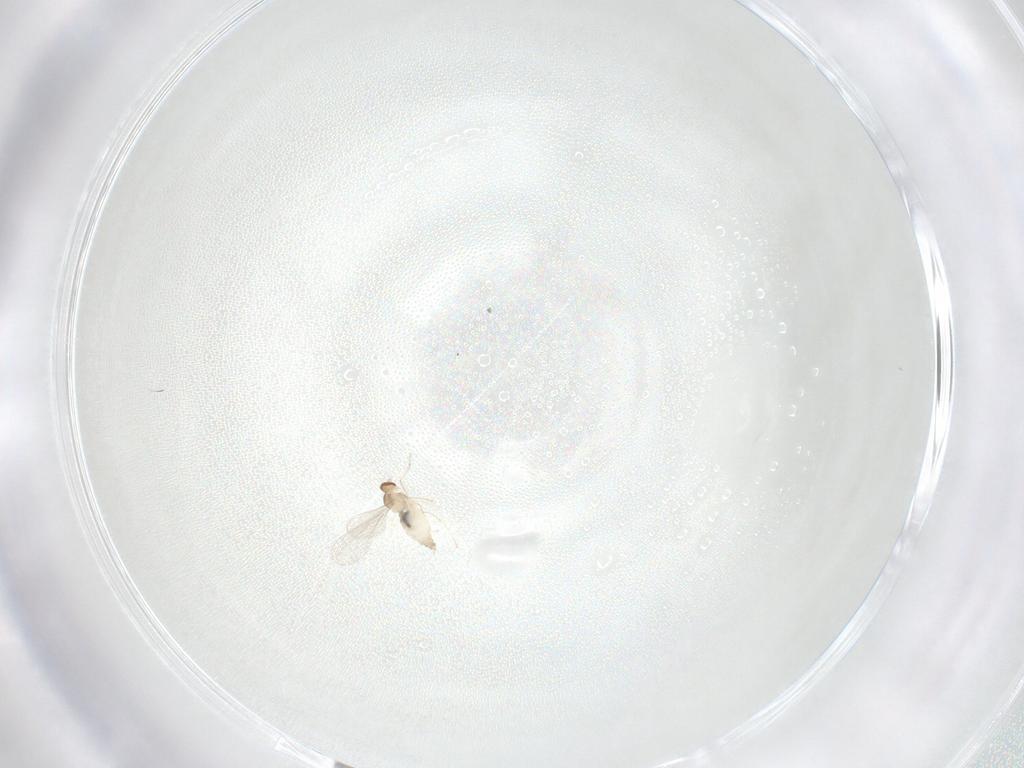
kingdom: Animalia
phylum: Arthropoda
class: Insecta
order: Diptera
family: Cecidomyiidae
